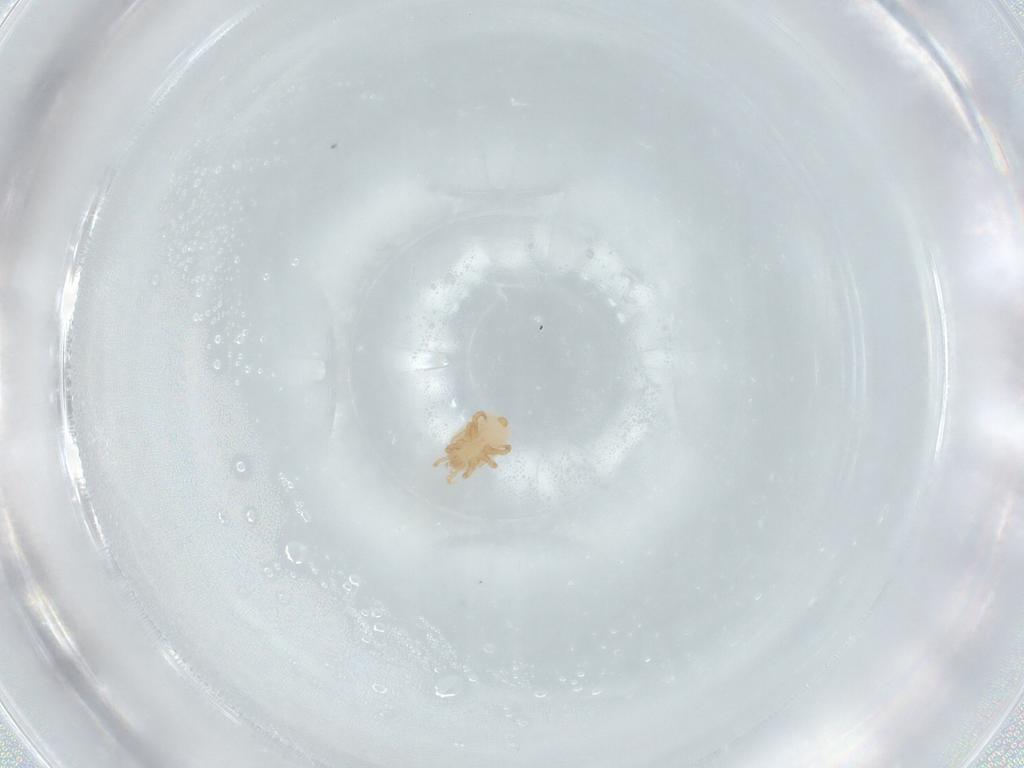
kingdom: Animalia
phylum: Arthropoda
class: Arachnida
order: Mesostigmata
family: Halolaelapidae
